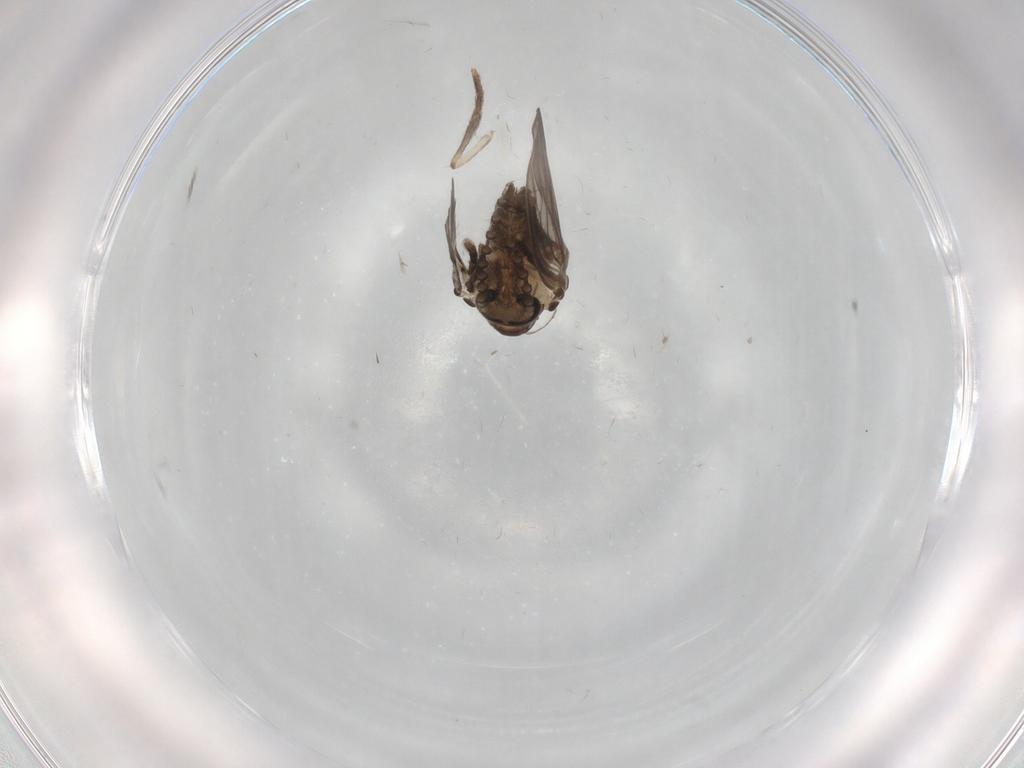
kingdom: Animalia
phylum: Arthropoda
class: Insecta
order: Diptera
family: Psychodidae
